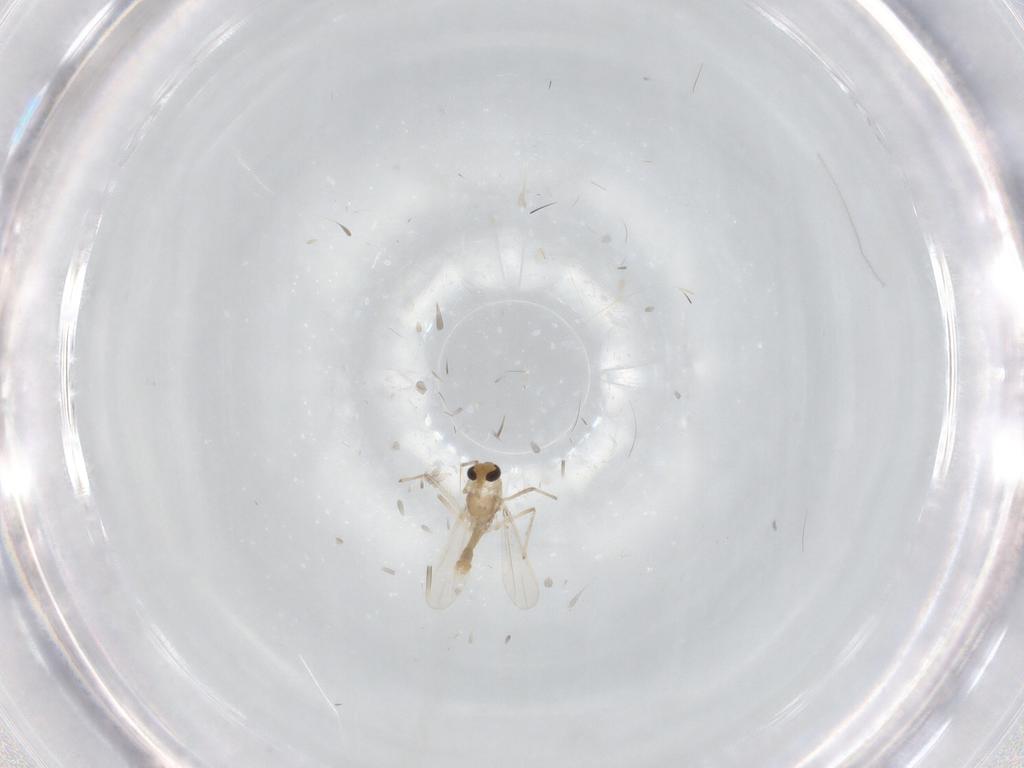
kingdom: Animalia
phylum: Arthropoda
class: Insecta
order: Diptera
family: Chironomidae
